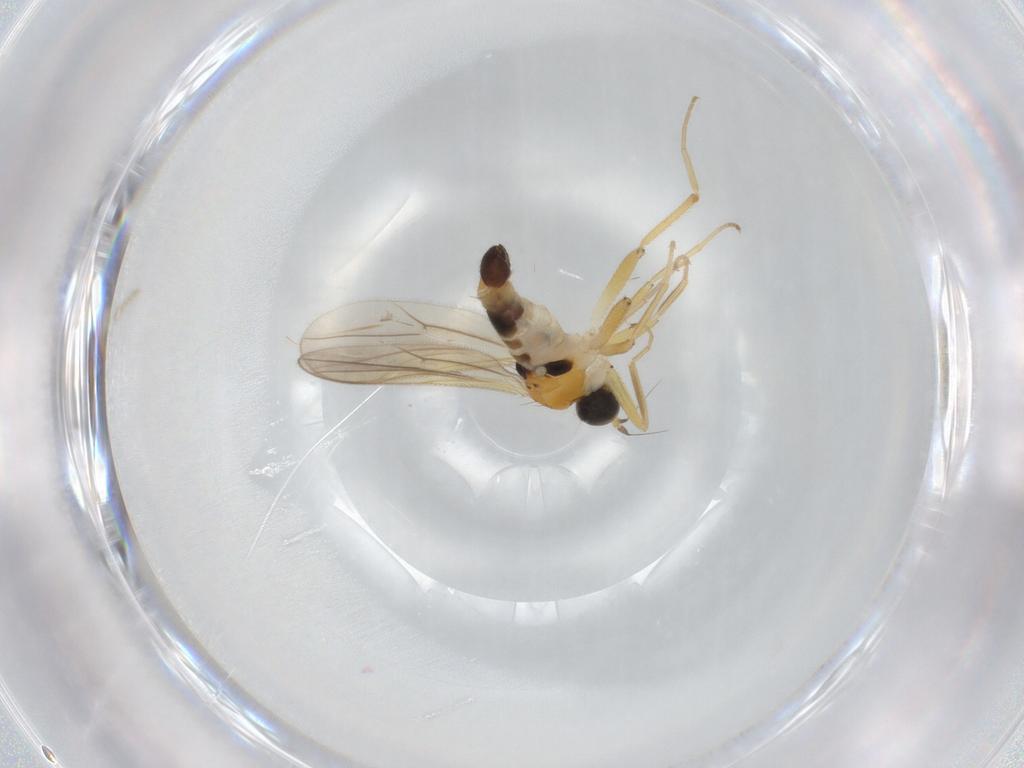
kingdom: Animalia
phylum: Arthropoda
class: Insecta
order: Diptera
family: Hybotidae
